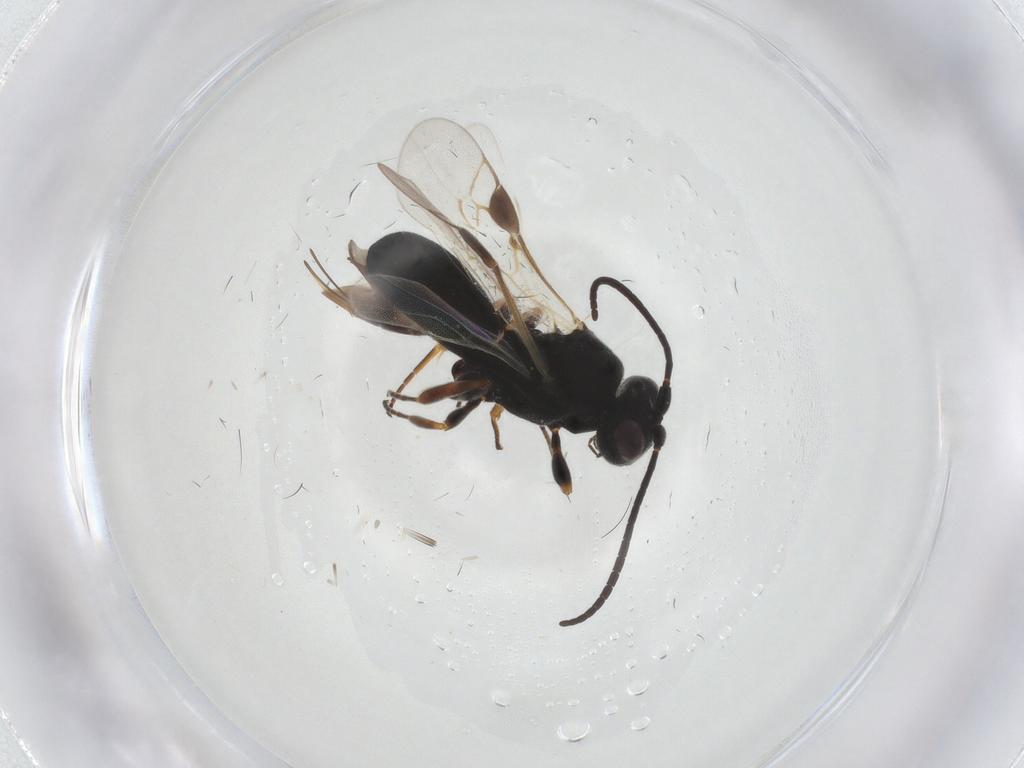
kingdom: Animalia
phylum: Arthropoda
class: Insecta
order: Hymenoptera
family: Braconidae
